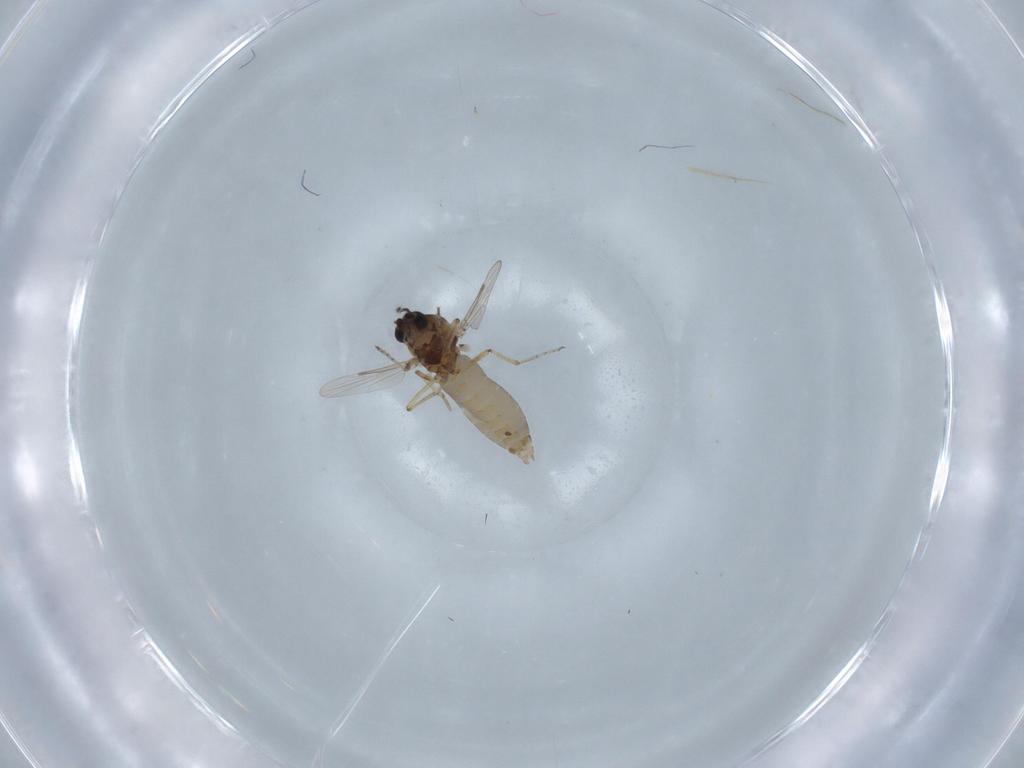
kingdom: Animalia
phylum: Arthropoda
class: Insecta
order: Diptera
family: Ceratopogonidae
